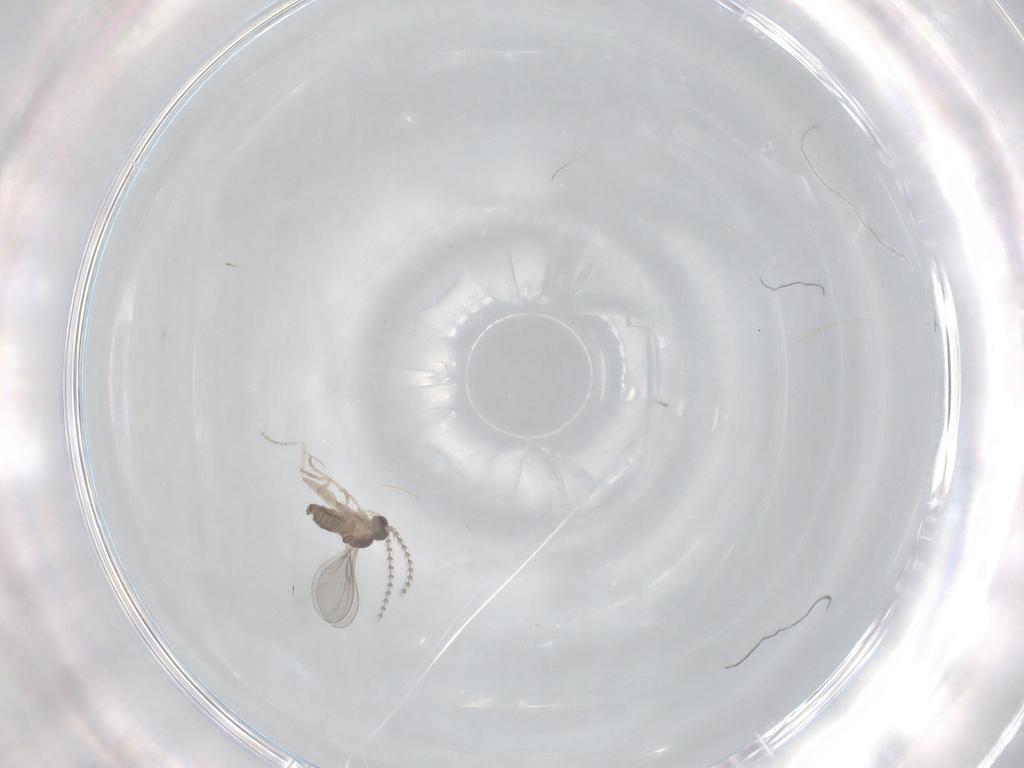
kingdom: Animalia
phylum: Arthropoda
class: Insecta
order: Diptera
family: Cecidomyiidae
